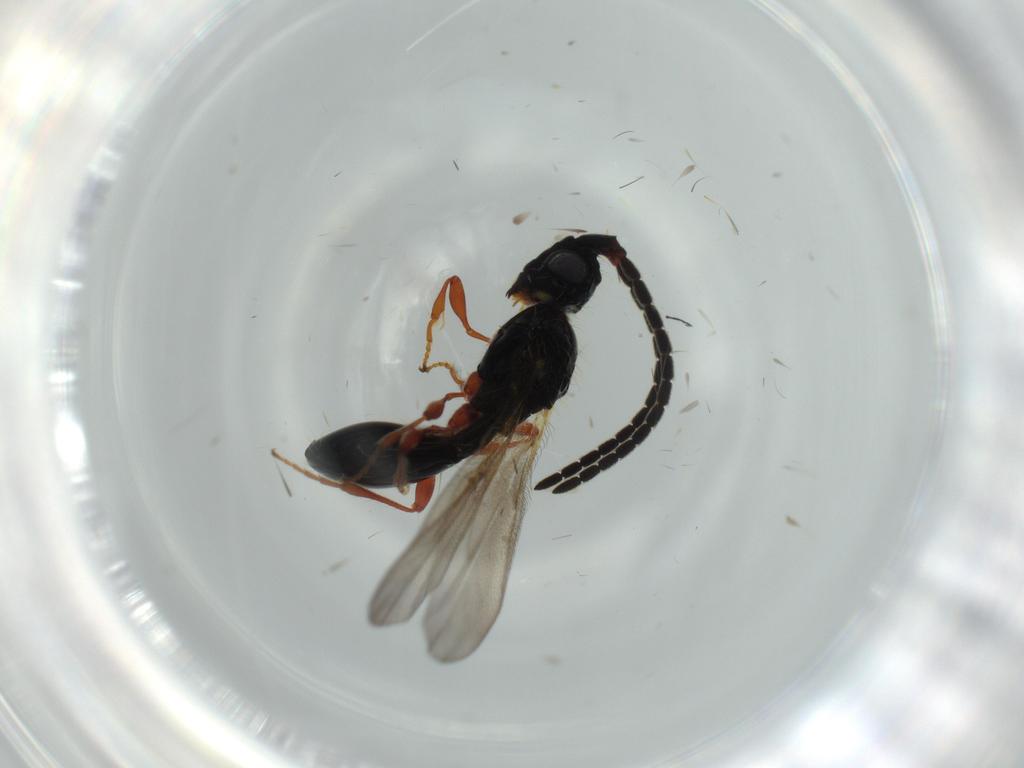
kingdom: Animalia
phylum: Arthropoda
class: Insecta
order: Hymenoptera
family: Diapriidae
